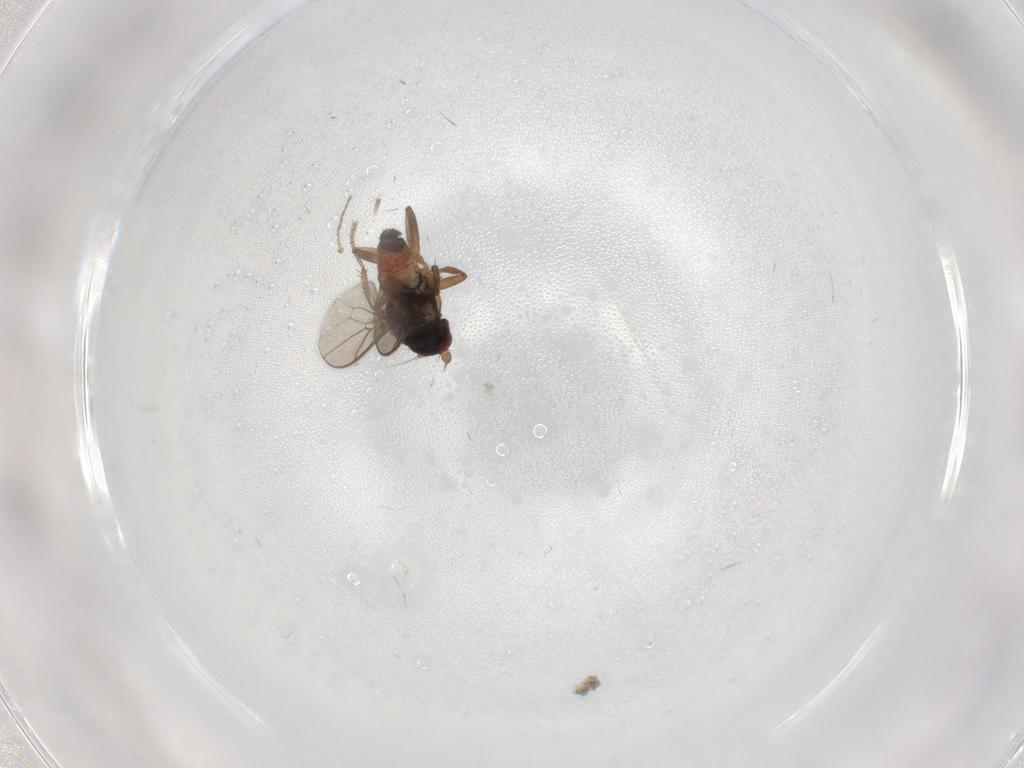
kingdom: Animalia
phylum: Arthropoda
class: Insecta
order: Diptera
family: Sphaeroceridae
